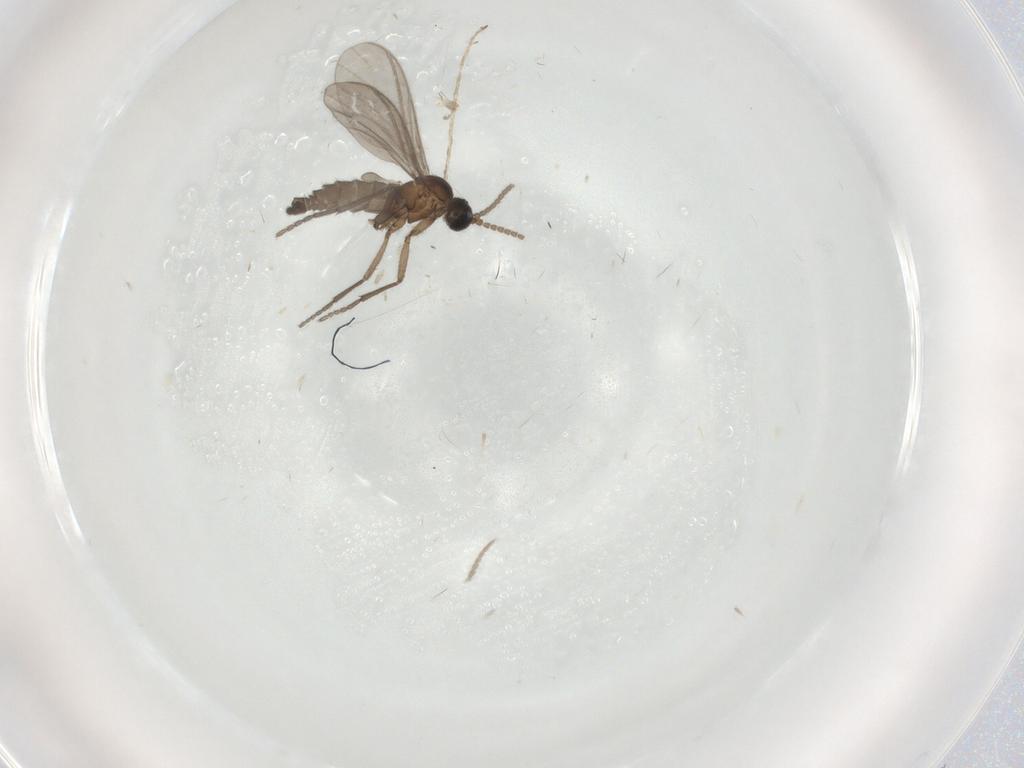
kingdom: Animalia
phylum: Arthropoda
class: Insecta
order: Diptera
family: Sciaridae
